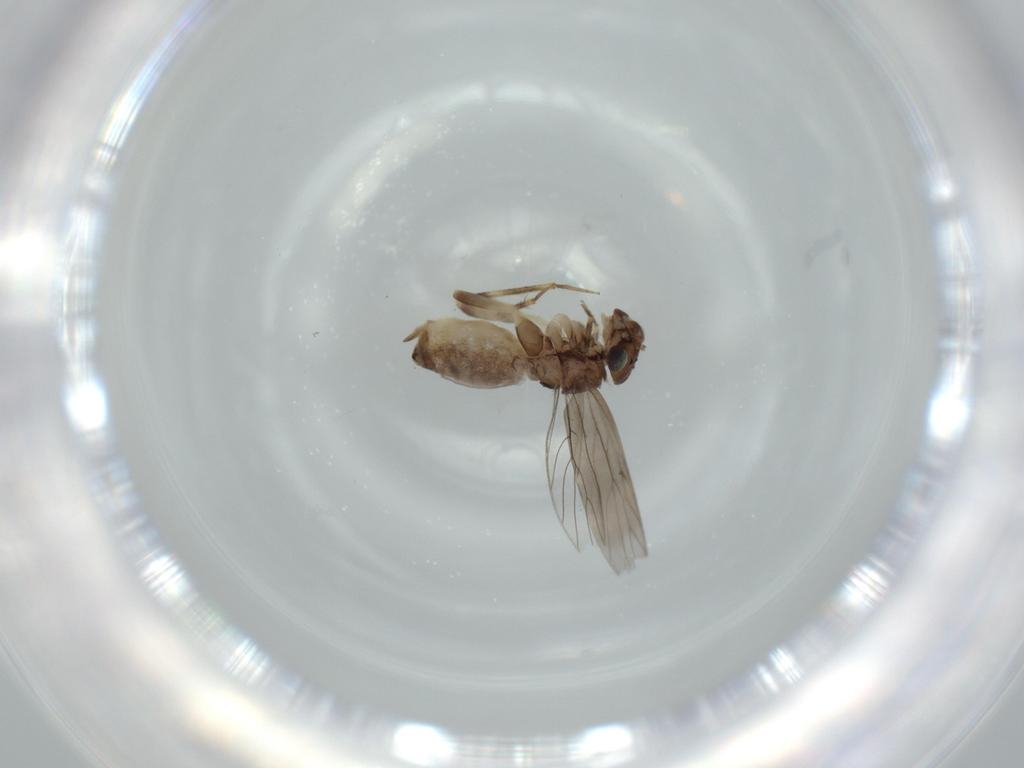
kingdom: Animalia
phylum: Arthropoda
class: Insecta
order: Psocodea
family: Lepidopsocidae
